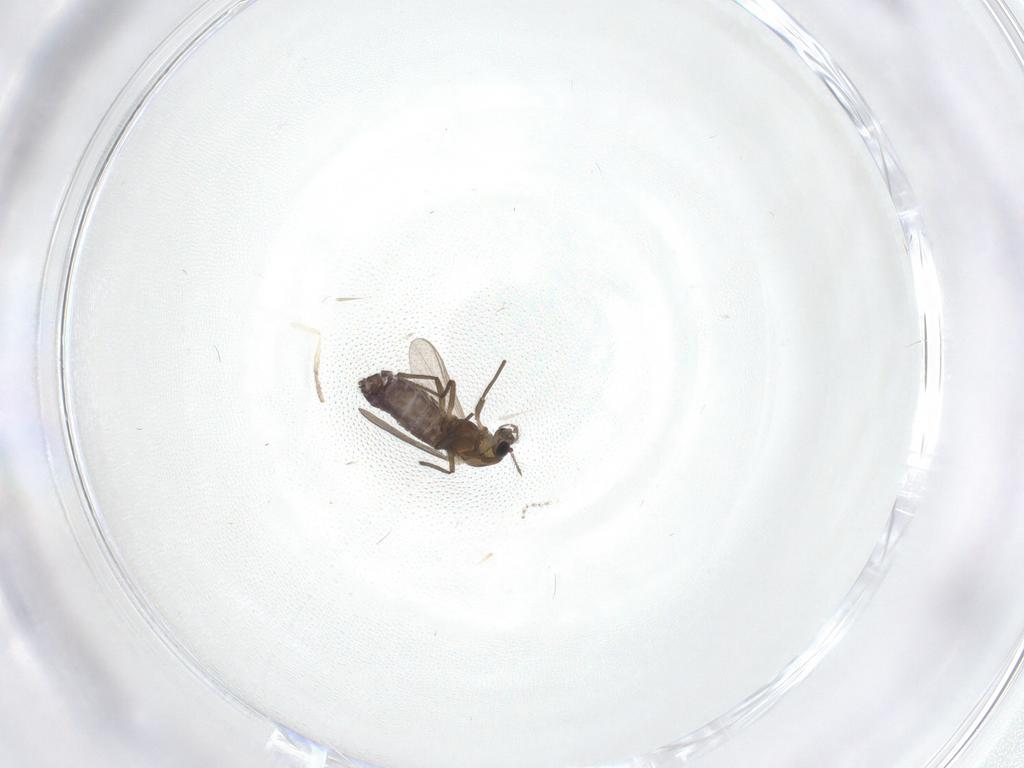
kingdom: Animalia
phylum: Arthropoda
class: Insecta
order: Diptera
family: Chironomidae
